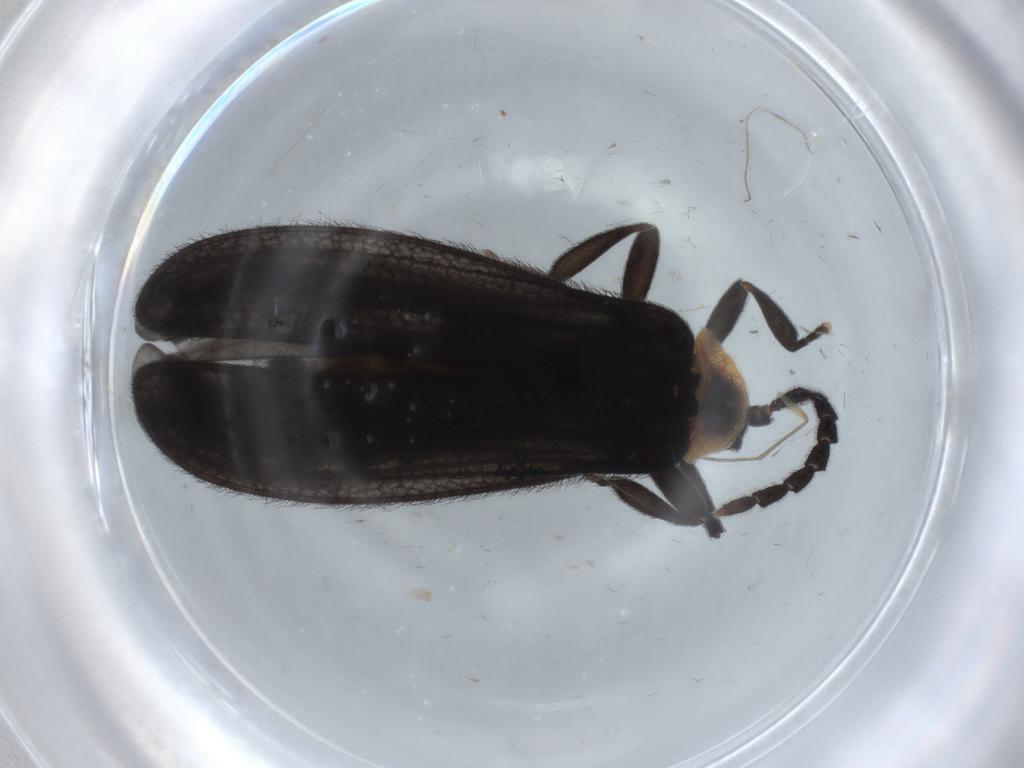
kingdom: Animalia
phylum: Arthropoda
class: Insecta
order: Coleoptera
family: Lycidae
